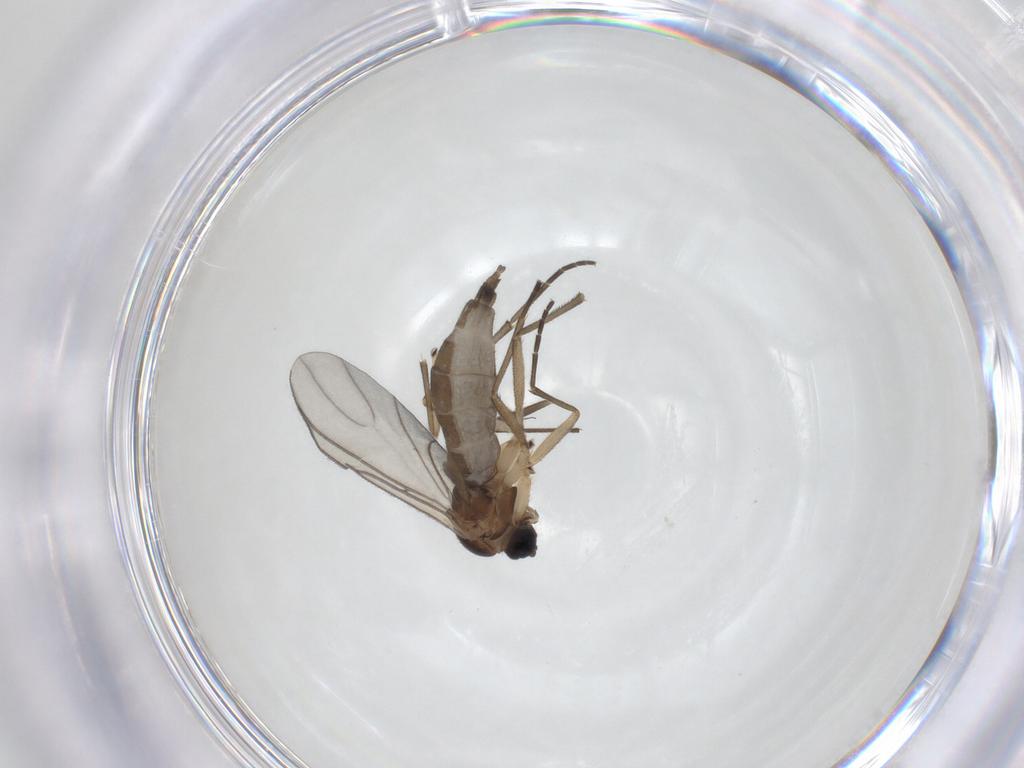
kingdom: Animalia
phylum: Arthropoda
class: Insecta
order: Diptera
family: Sciaridae
